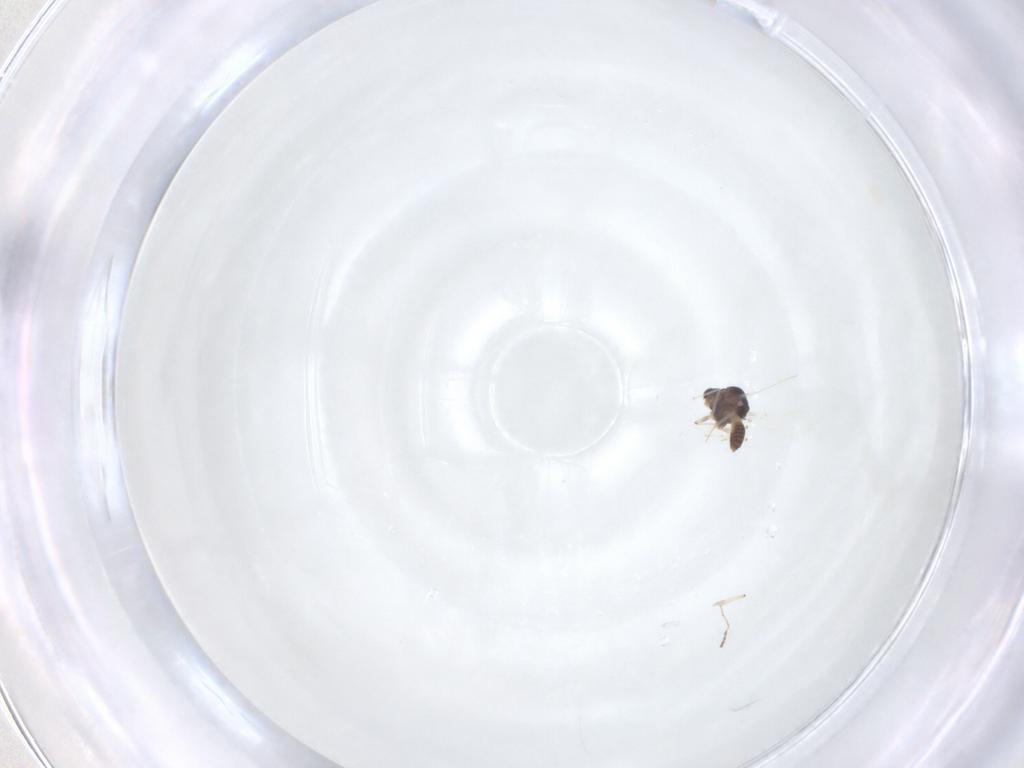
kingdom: Animalia
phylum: Arthropoda
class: Insecta
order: Diptera
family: Chironomidae
